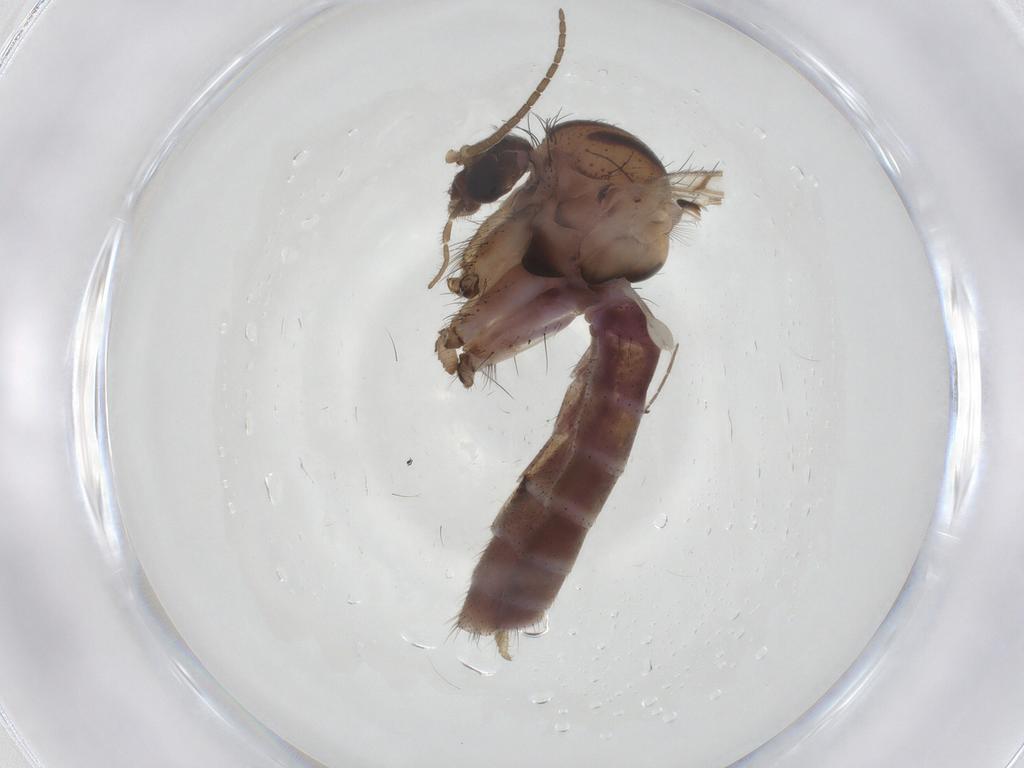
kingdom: Animalia
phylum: Arthropoda
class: Insecta
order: Diptera
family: Mycetophilidae
